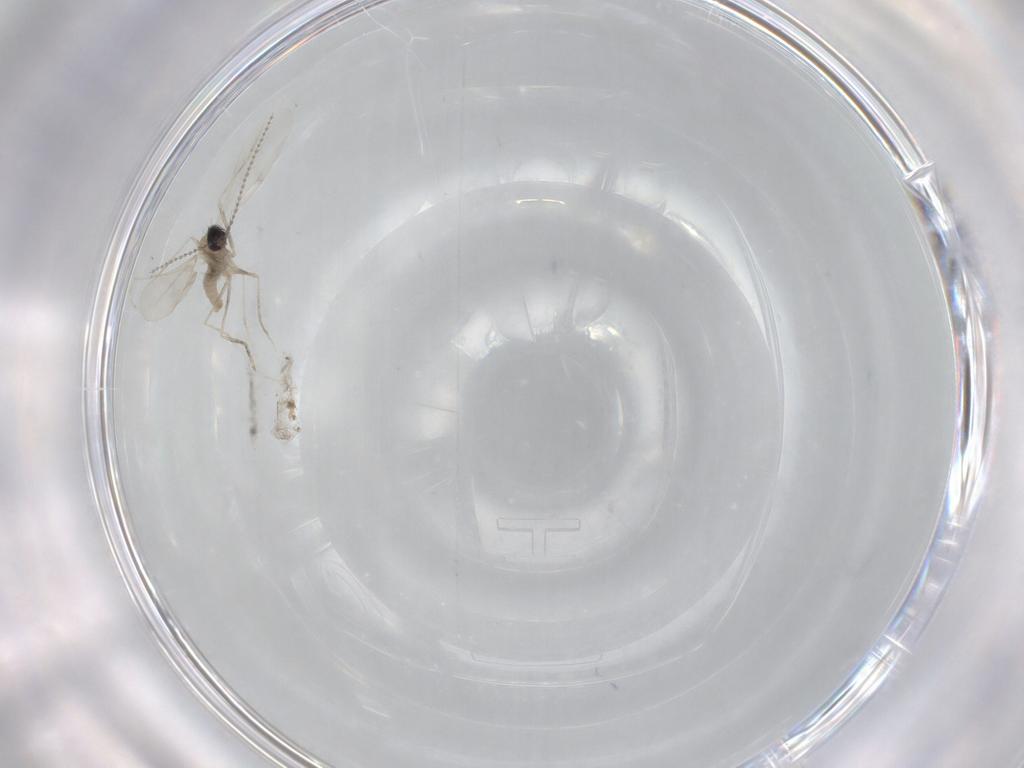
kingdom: Animalia
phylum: Arthropoda
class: Insecta
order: Diptera
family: Cecidomyiidae
